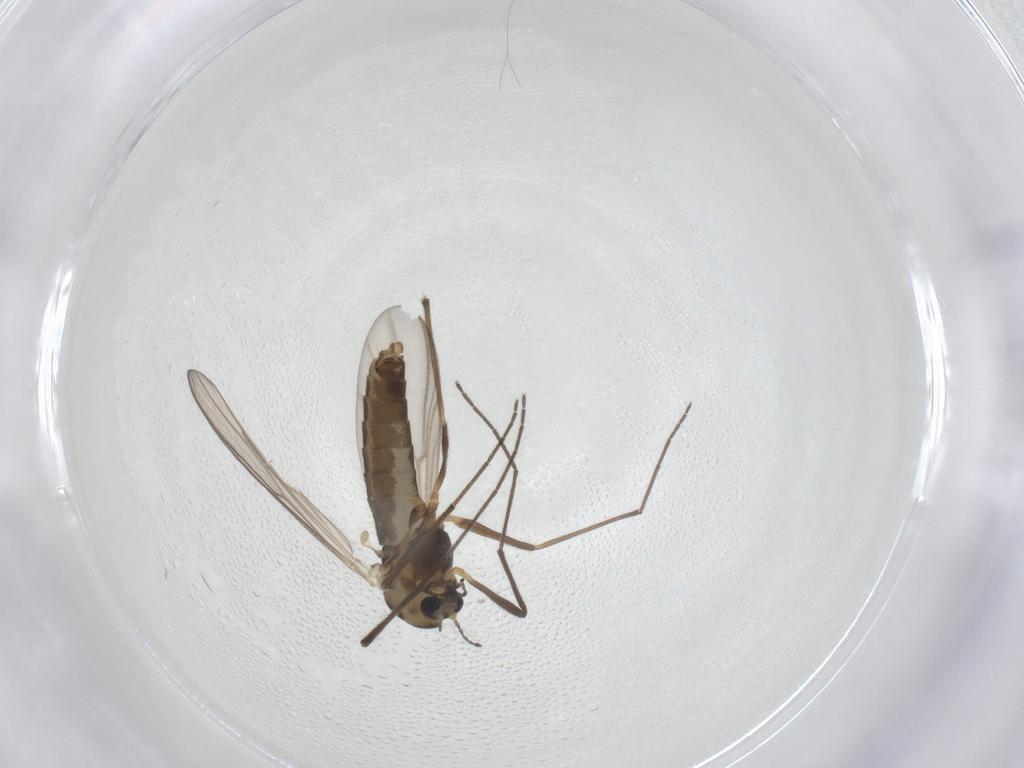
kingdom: Animalia
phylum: Arthropoda
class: Insecta
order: Diptera
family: Chironomidae
